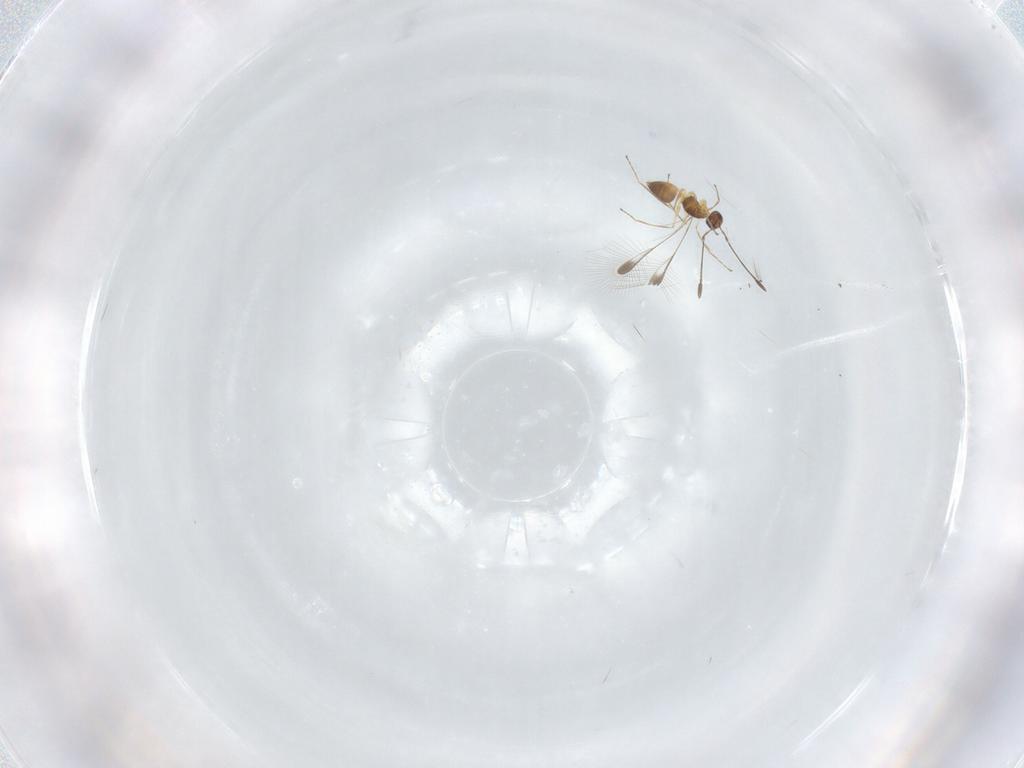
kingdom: Animalia
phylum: Arthropoda
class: Insecta
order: Hymenoptera
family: Mymaridae
